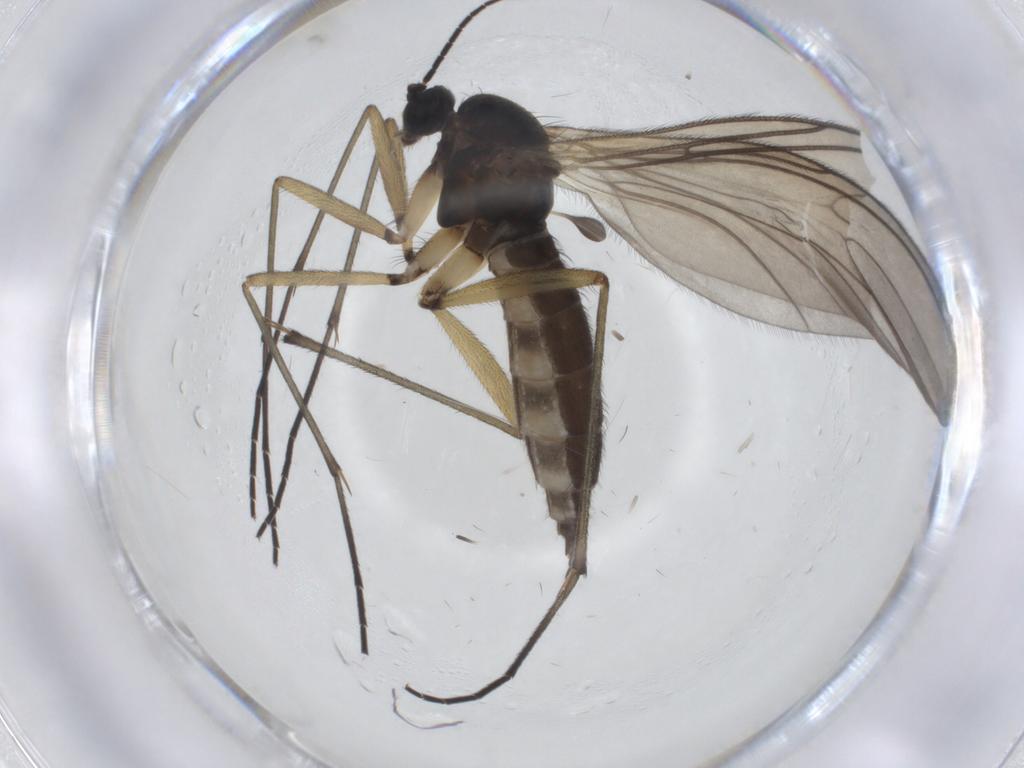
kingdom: Animalia
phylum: Arthropoda
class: Insecta
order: Diptera
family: Sciaridae
